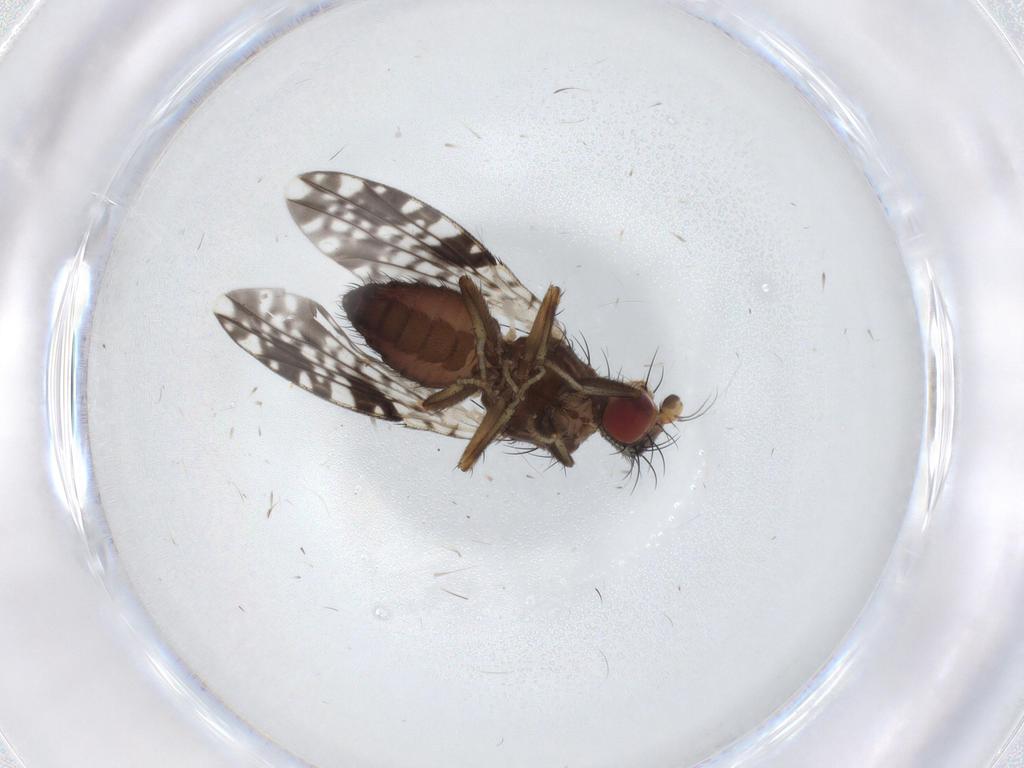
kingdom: Animalia
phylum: Arthropoda
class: Insecta
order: Diptera
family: Tephritidae
